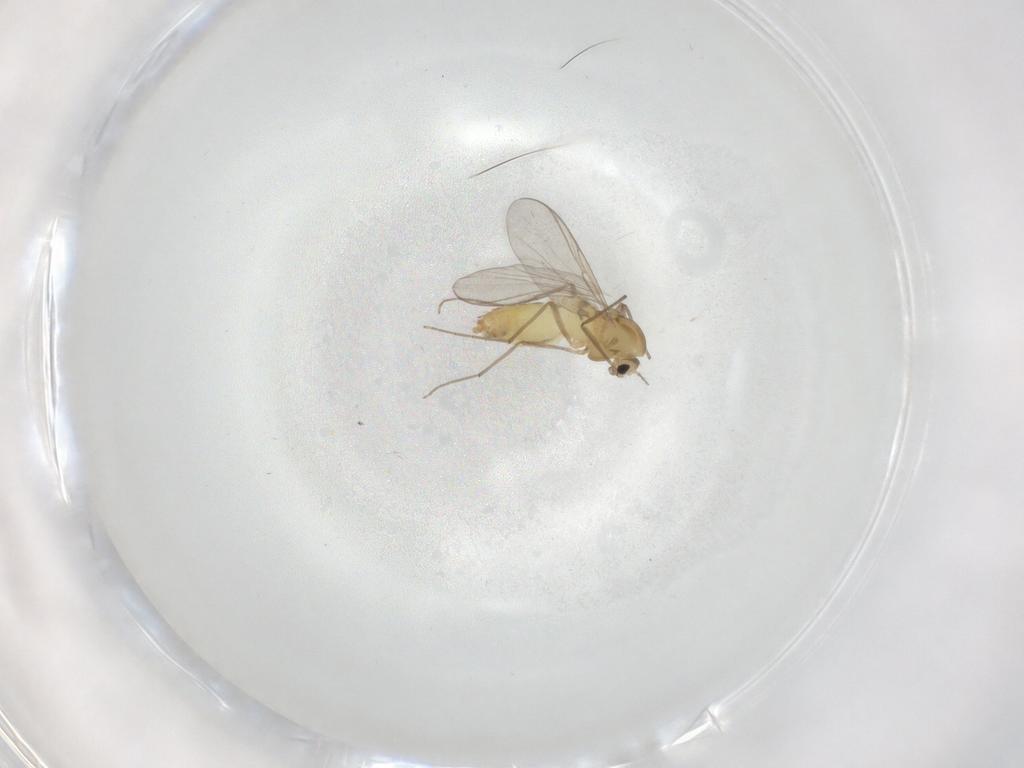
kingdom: Animalia
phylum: Arthropoda
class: Insecta
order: Diptera
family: Chironomidae
